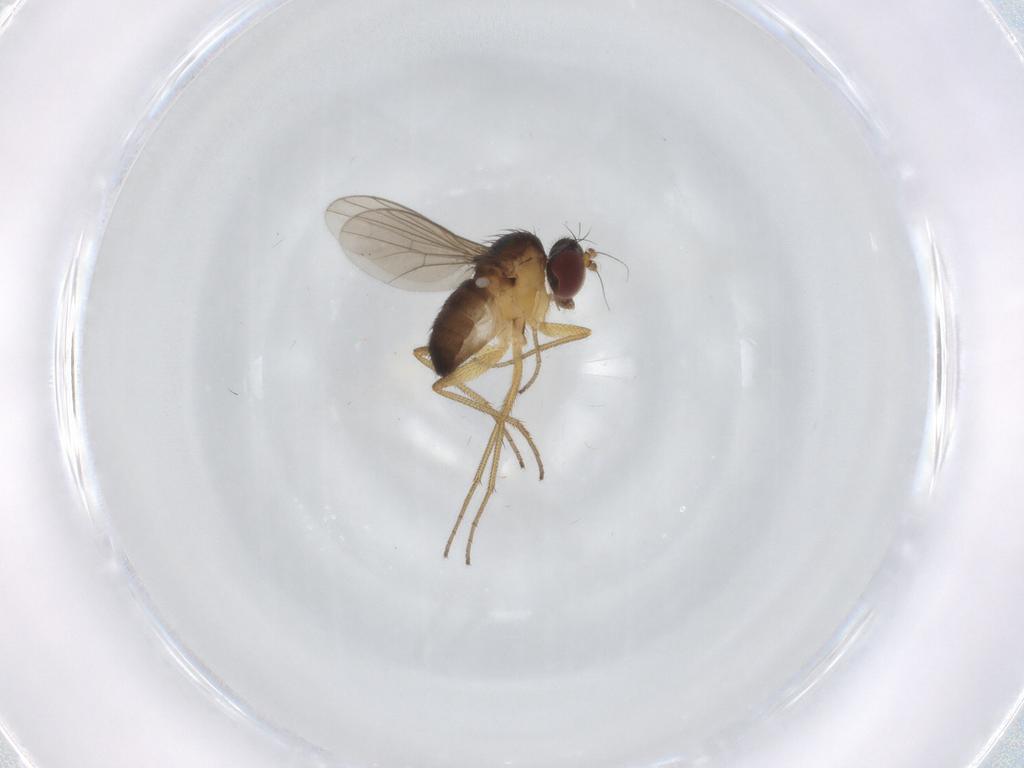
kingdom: Animalia
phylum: Arthropoda
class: Insecta
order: Diptera
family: Dolichopodidae
